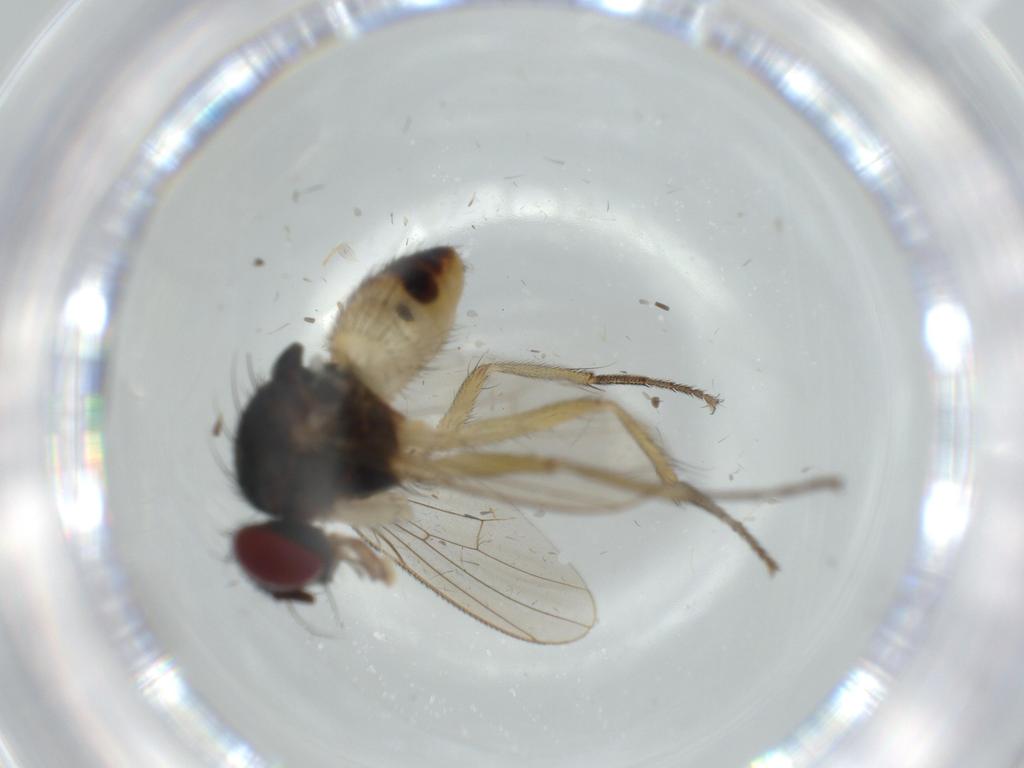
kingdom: Animalia
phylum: Arthropoda
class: Insecta
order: Diptera
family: Muscidae
